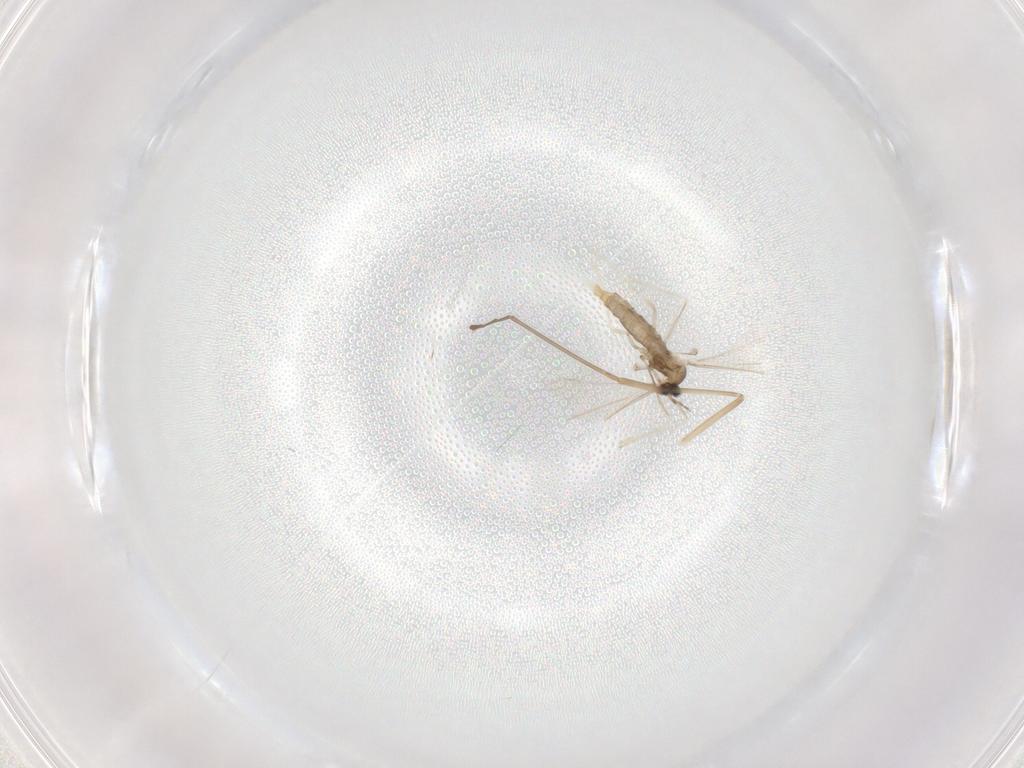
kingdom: Animalia
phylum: Arthropoda
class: Insecta
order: Diptera
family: Cecidomyiidae
